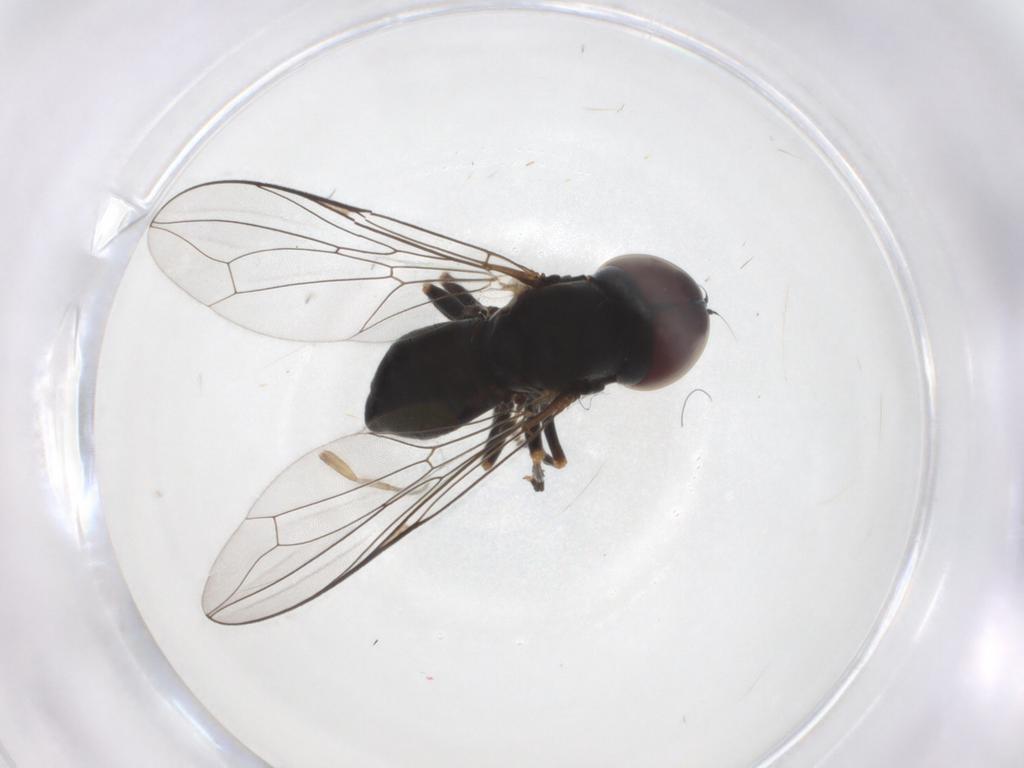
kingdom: Animalia
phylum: Arthropoda
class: Insecta
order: Diptera
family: Pipunculidae
